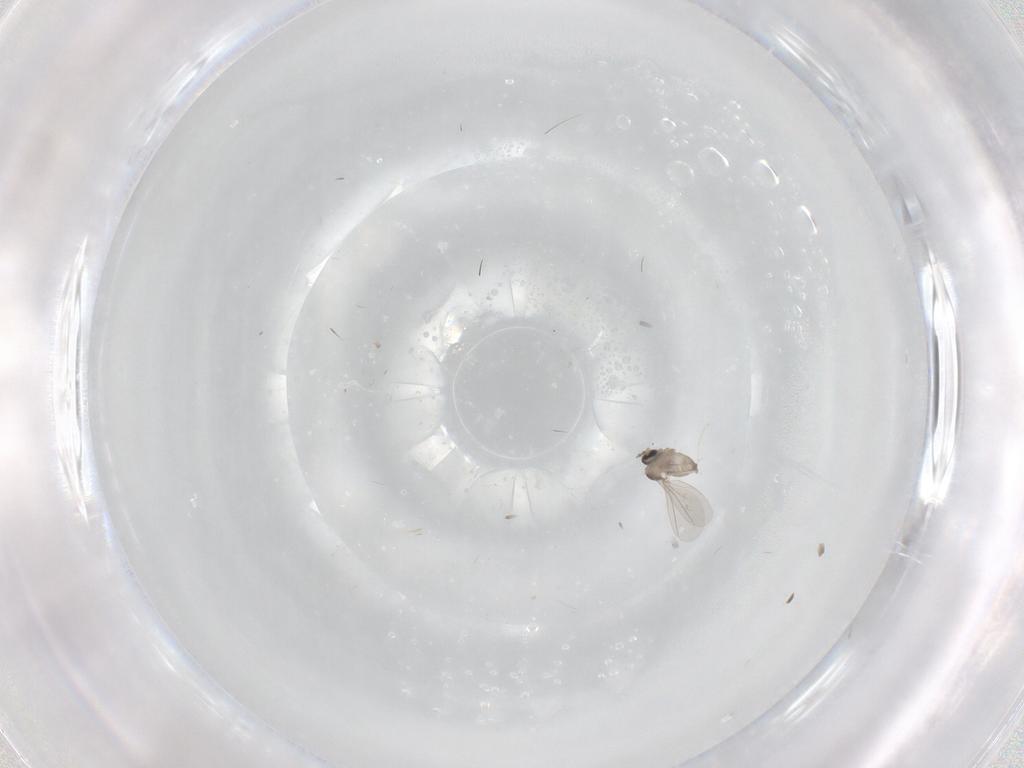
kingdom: Animalia
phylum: Arthropoda
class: Insecta
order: Diptera
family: Cecidomyiidae
